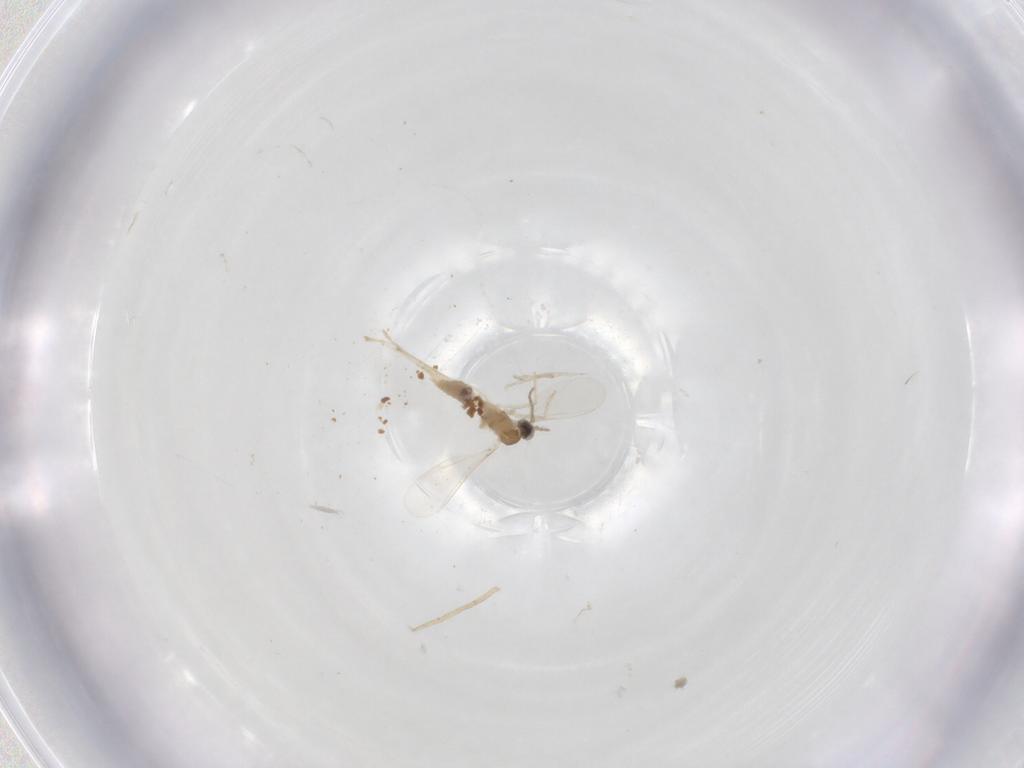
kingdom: Animalia
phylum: Arthropoda
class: Insecta
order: Diptera
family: Cecidomyiidae
